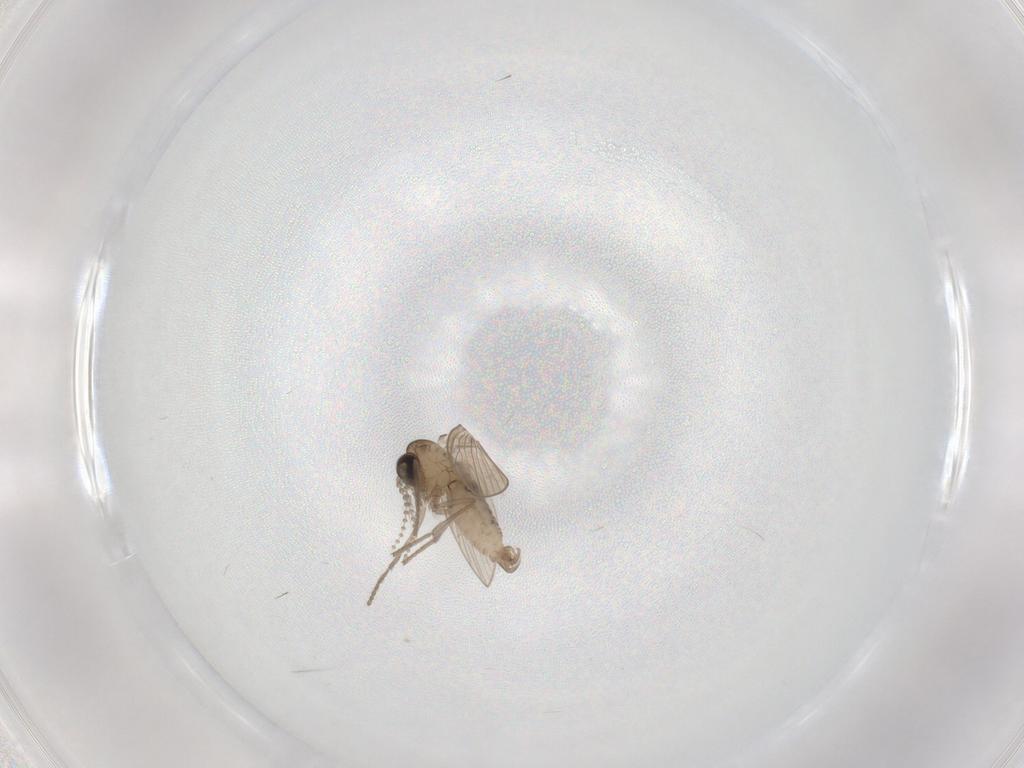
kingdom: Animalia
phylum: Arthropoda
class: Insecta
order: Diptera
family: Psychodidae
